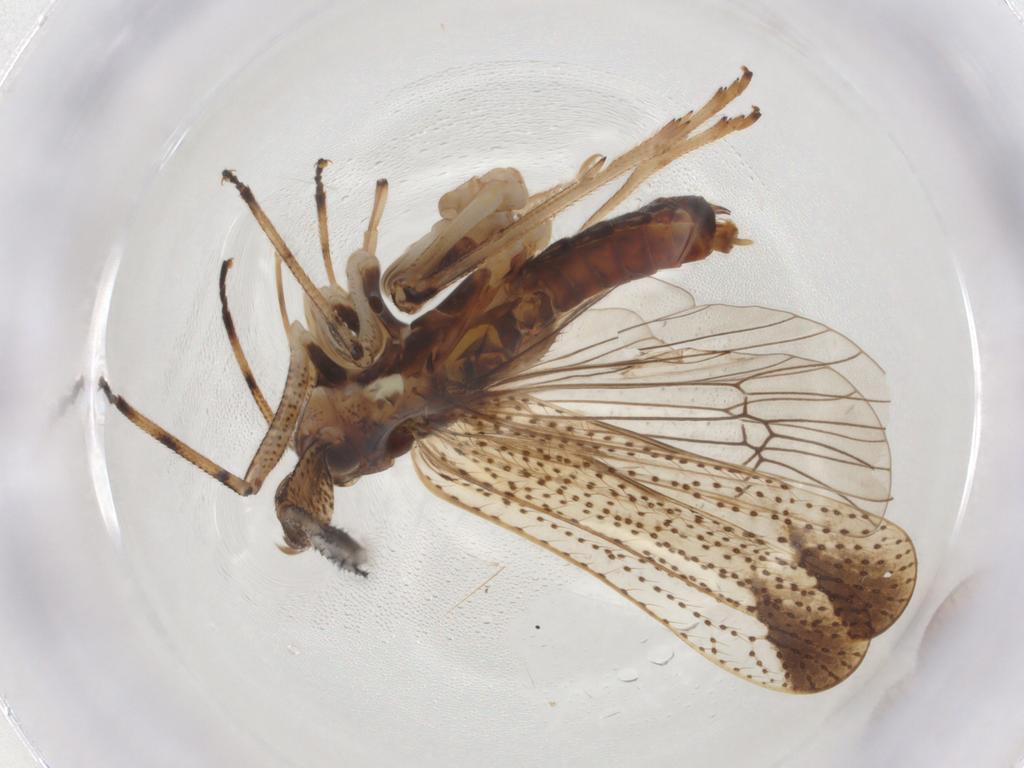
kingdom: Animalia
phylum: Arthropoda
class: Insecta
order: Hemiptera
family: Delphacidae
